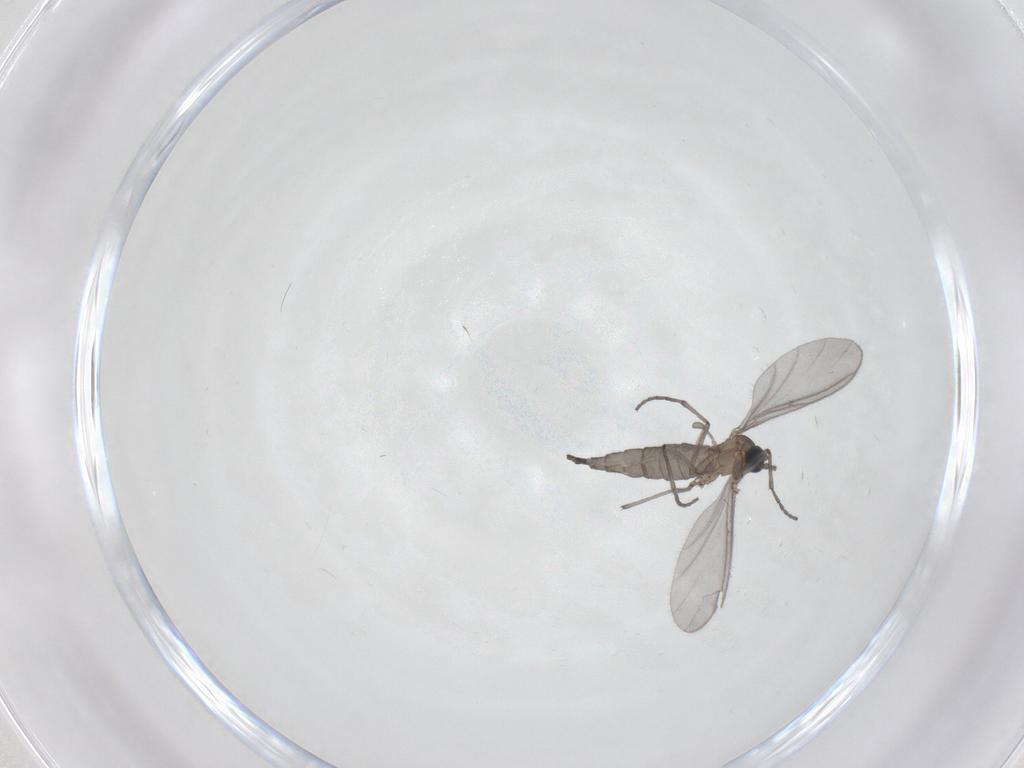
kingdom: Animalia
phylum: Arthropoda
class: Insecta
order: Diptera
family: Sciaridae
